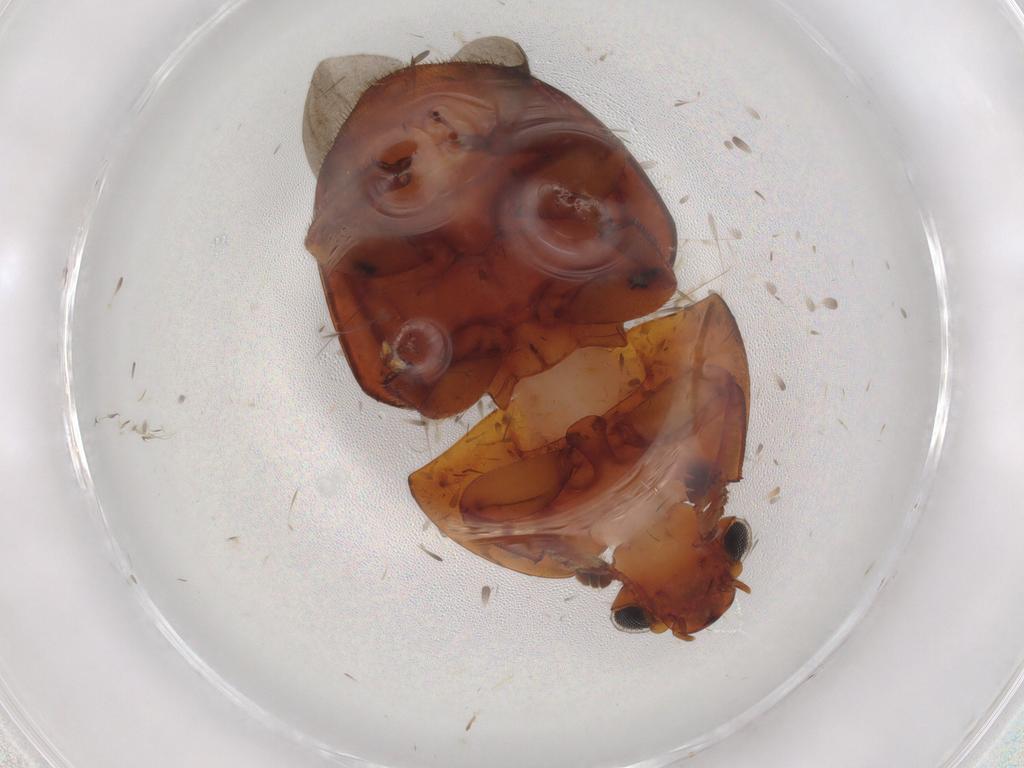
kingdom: Animalia
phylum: Arthropoda
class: Insecta
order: Coleoptera
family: Nitidulidae
